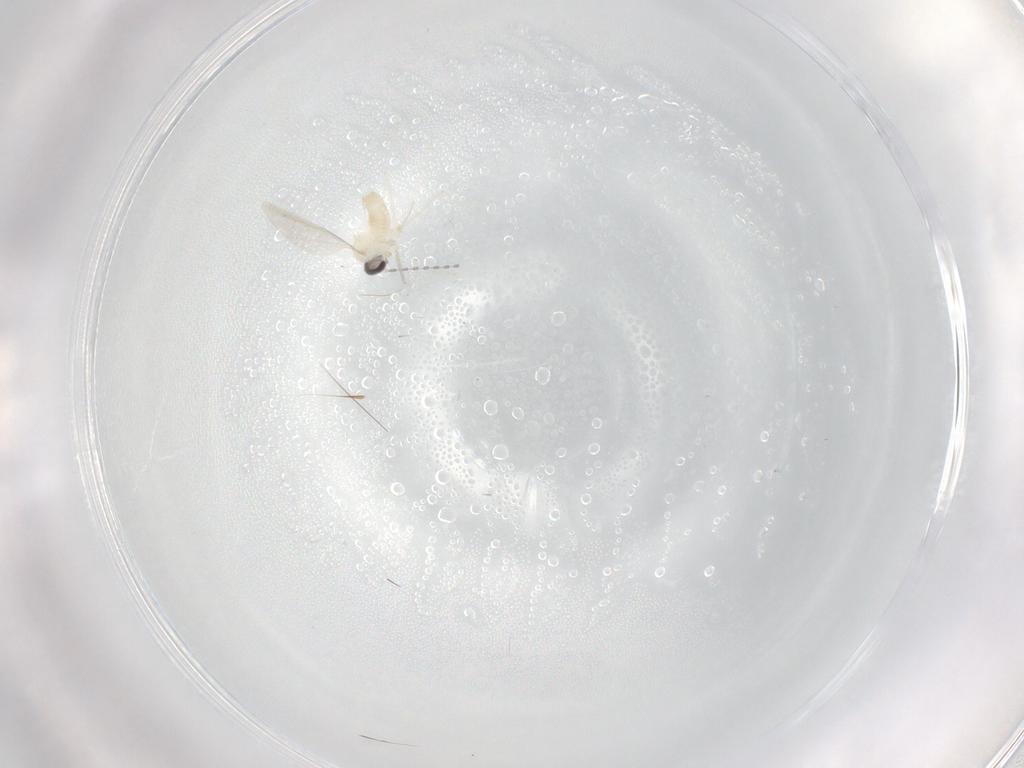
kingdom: Animalia
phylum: Arthropoda
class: Insecta
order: Diptera
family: Cecidomyiidae
